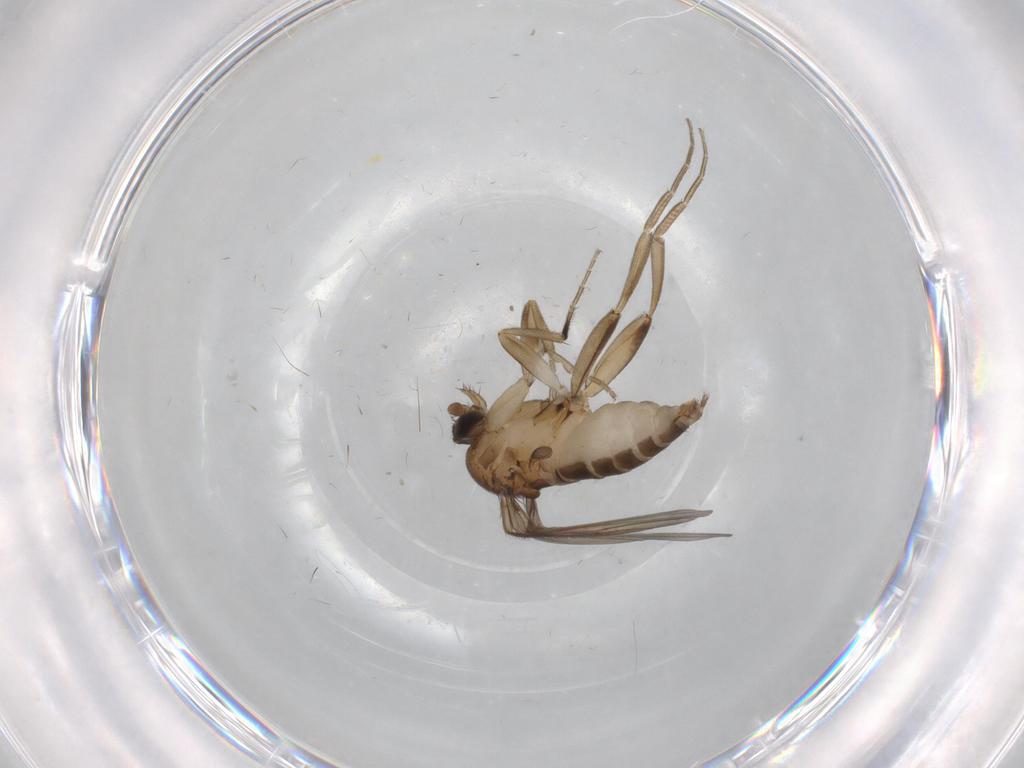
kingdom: Animalia
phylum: Arthropoda
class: Insecta
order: Diptera
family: Phoridae
